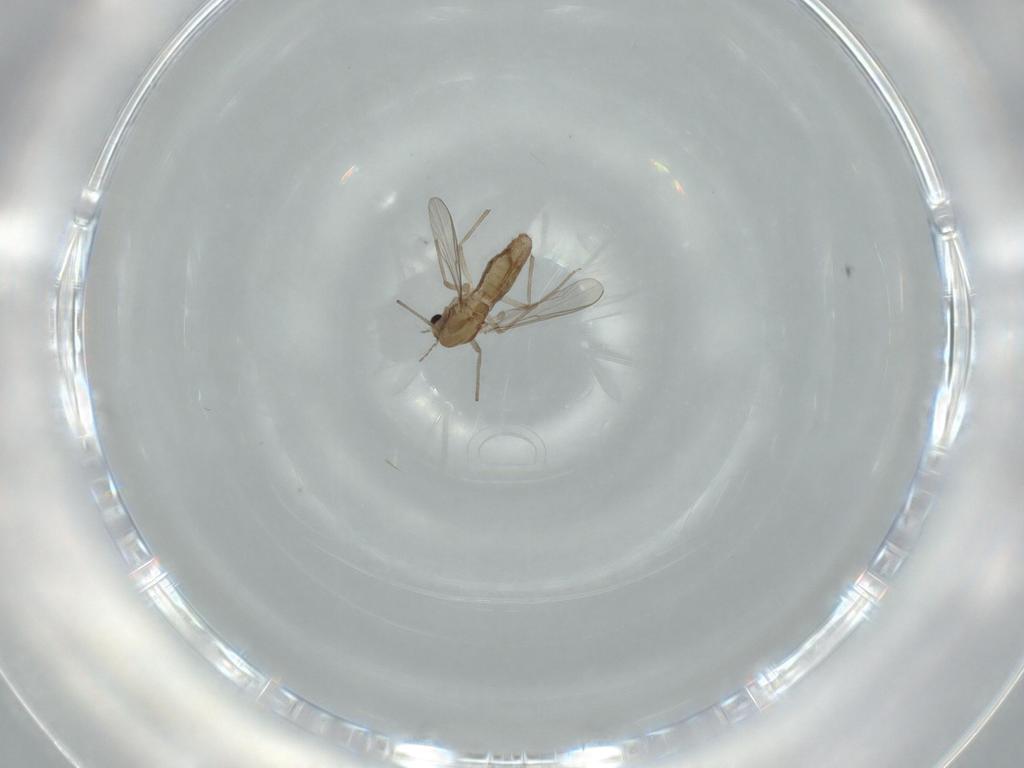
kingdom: Animalia
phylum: Arthropoda
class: Insecta
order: Diptera
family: Chironomidae
